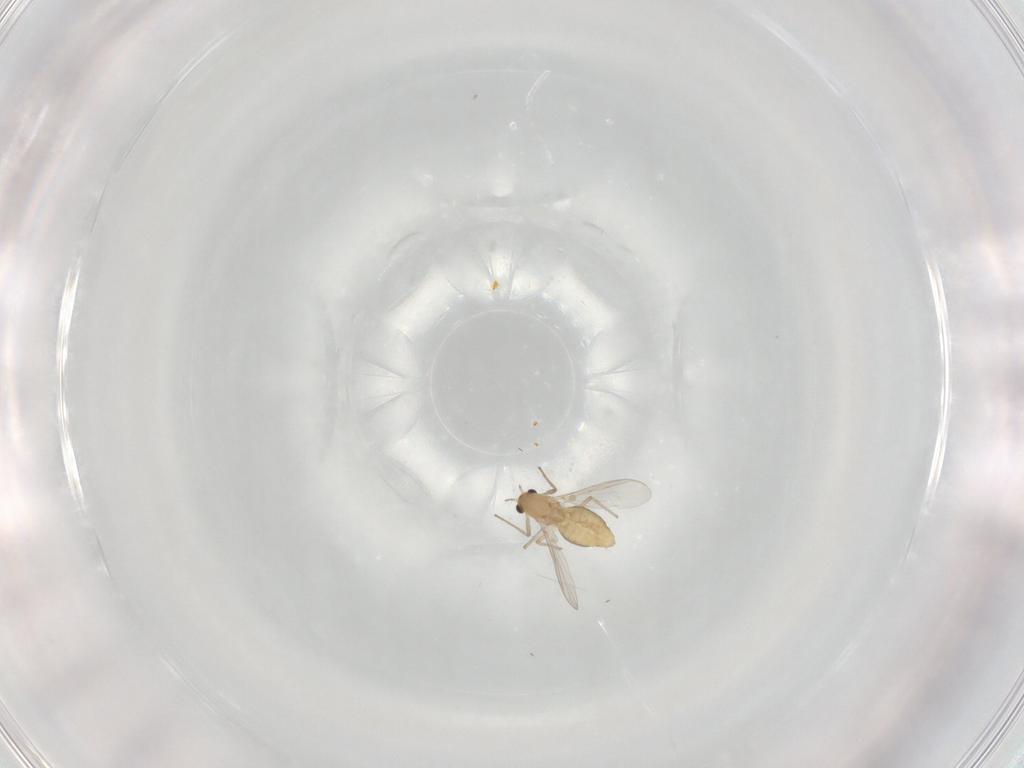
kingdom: Animalia
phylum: Arthropoda
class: Insecta
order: Diptera
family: Chironomidae
